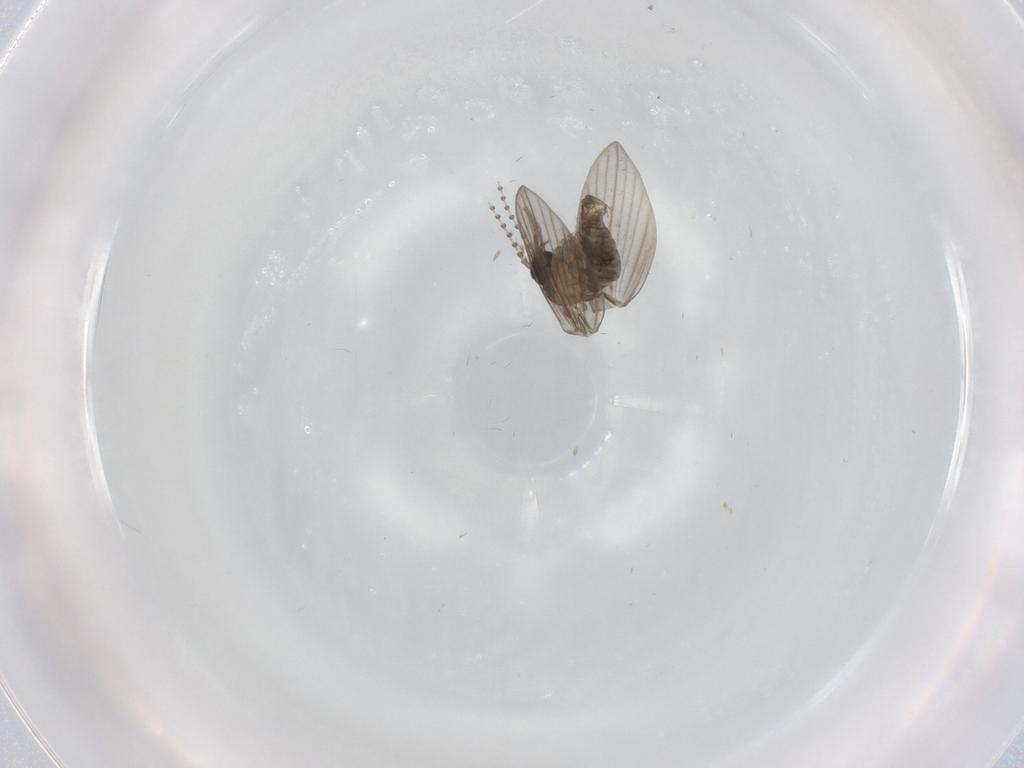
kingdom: Animalia
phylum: Arthropoda
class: Insecta
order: Diptera
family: Psychodidae
